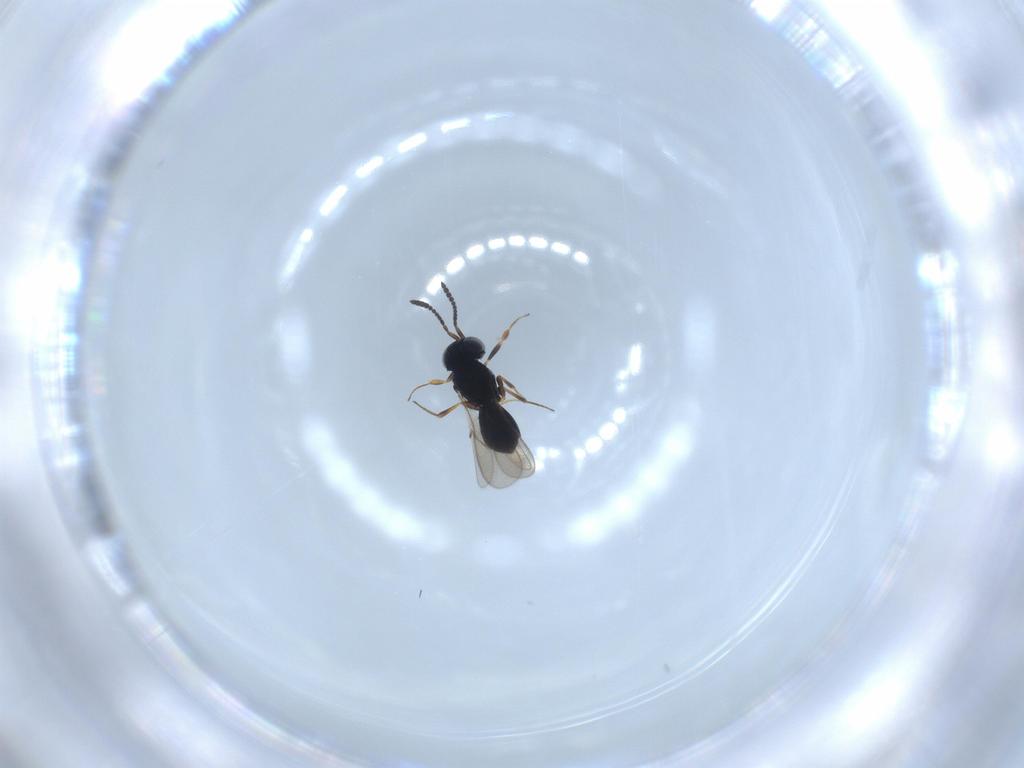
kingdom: Animalia
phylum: Arthropoda
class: Insecta
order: Hymenoptera
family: Scelionidae
